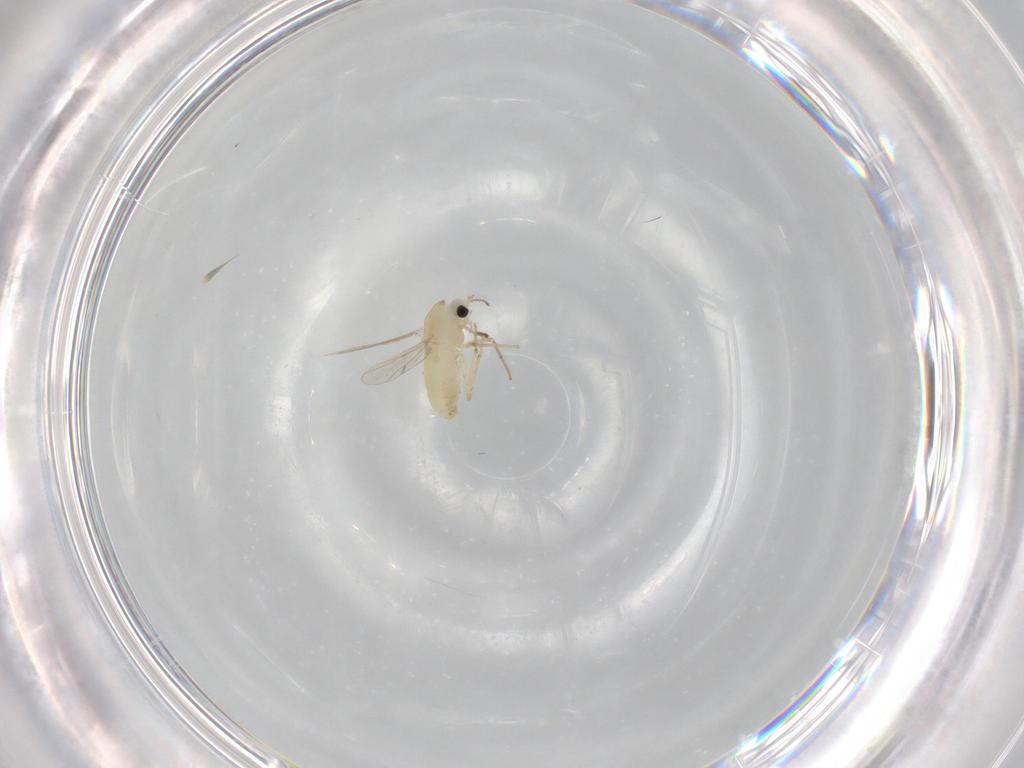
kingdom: Animalia
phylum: Arthropoda
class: Insecta
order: Diptera
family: Chironomidae
